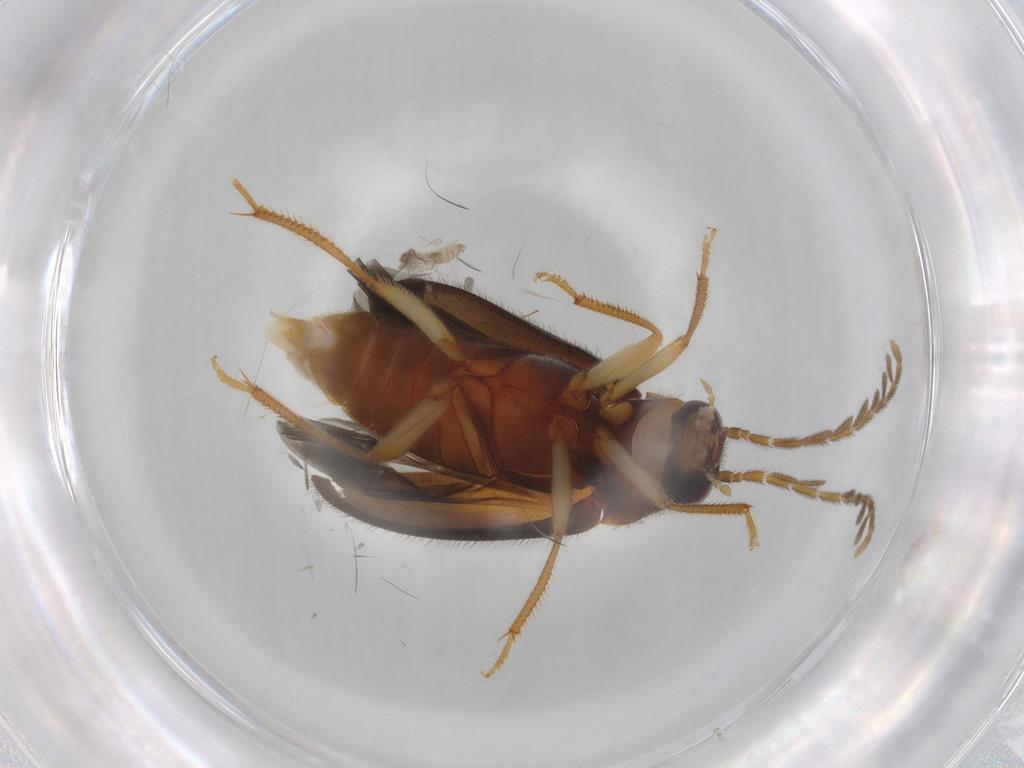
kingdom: Animalia
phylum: Arthropoda
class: Insecta
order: Coleoptera
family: Ptilodactylidae
